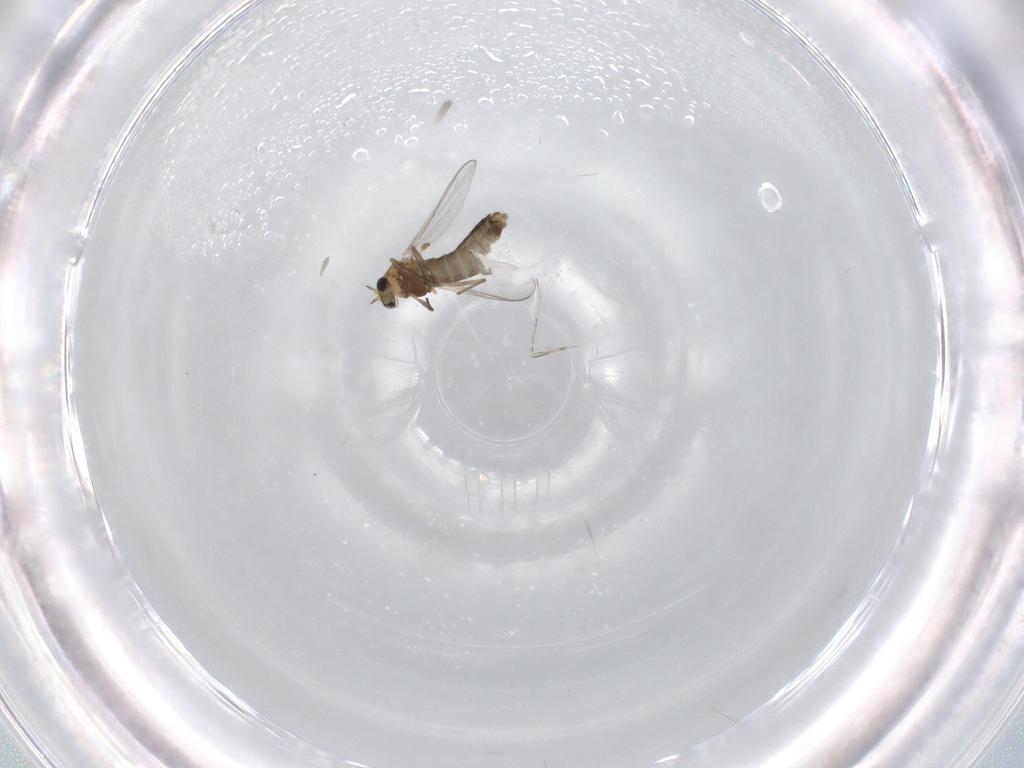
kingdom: Animalia
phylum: Arthropoda
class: Insecta
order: Diptera
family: Cecidomyiidae
